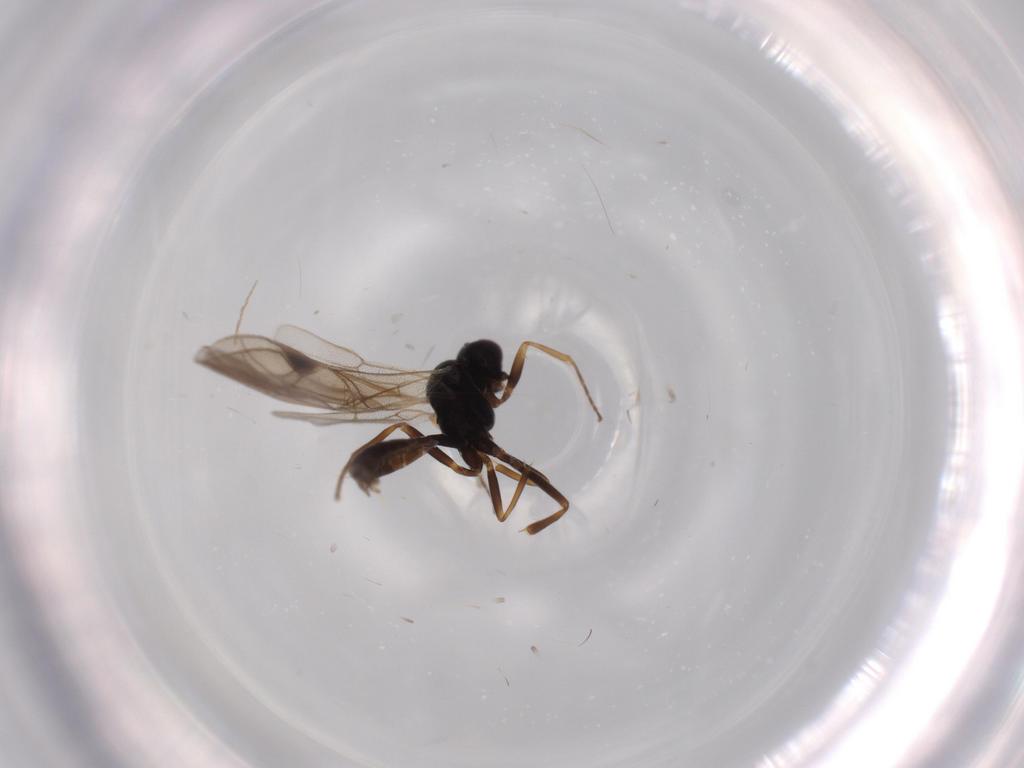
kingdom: Animalia
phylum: Arthropoda
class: Insecta
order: Hymenoptera
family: Ichneumonidae
